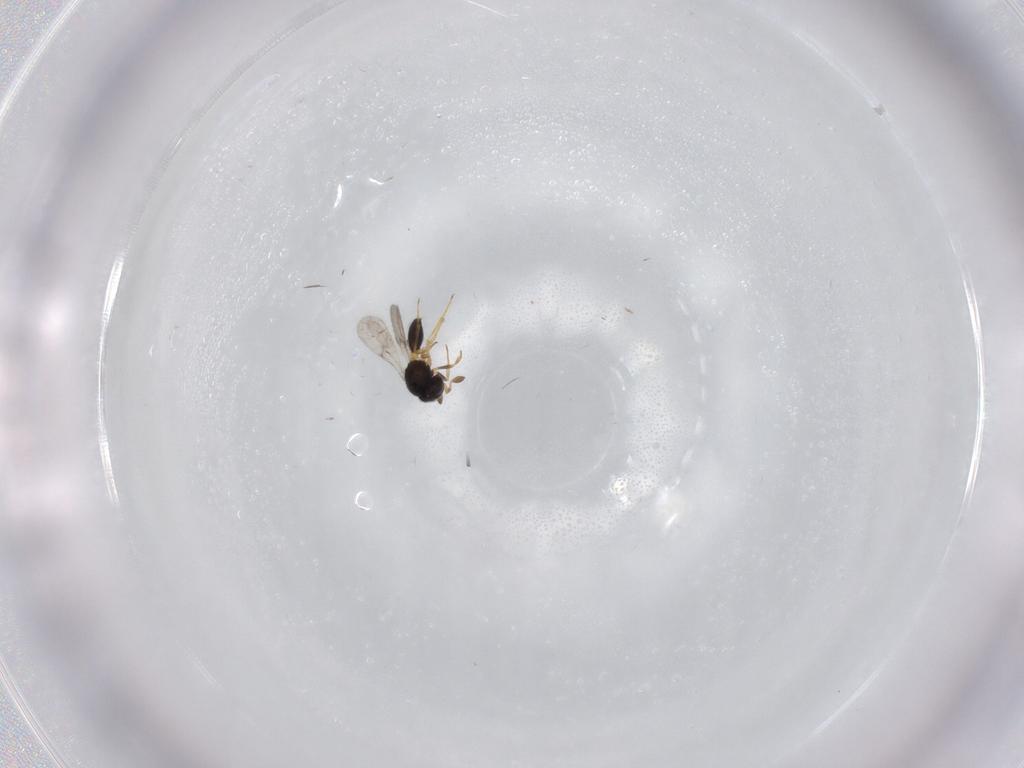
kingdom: Animalia
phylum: Arthropoda
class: Insecta
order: Hymenoptera
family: Scelionidae
